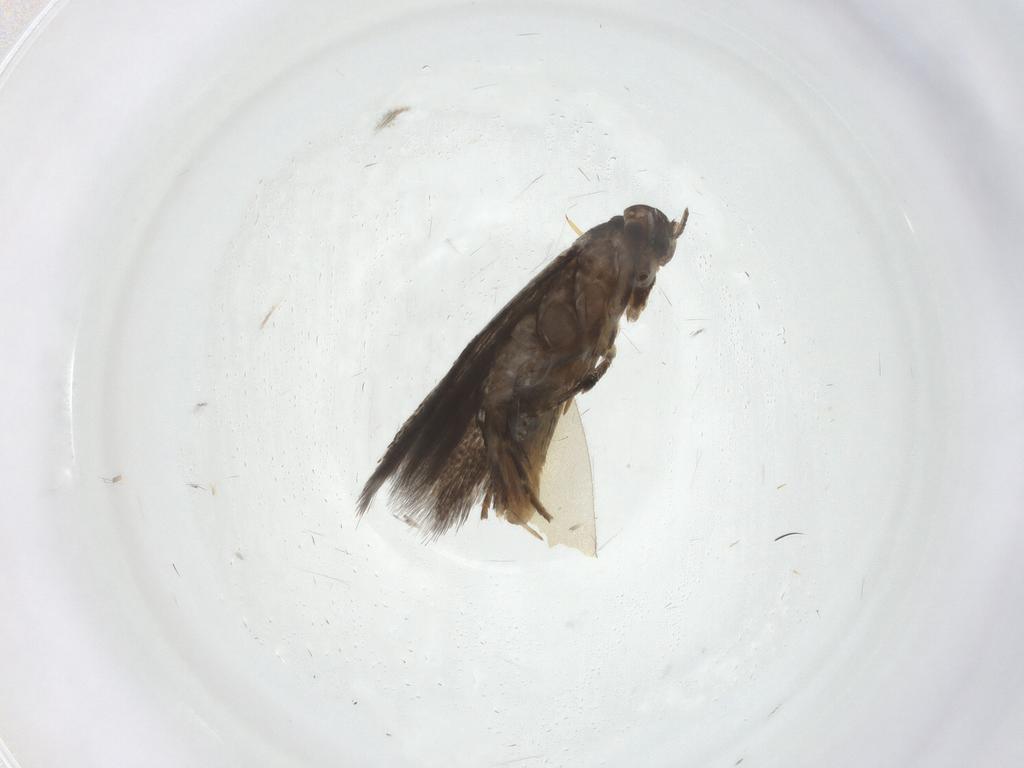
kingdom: Animalia
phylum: Arthropoda
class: Insecta
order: Lepidoptera
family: Elachistidae
